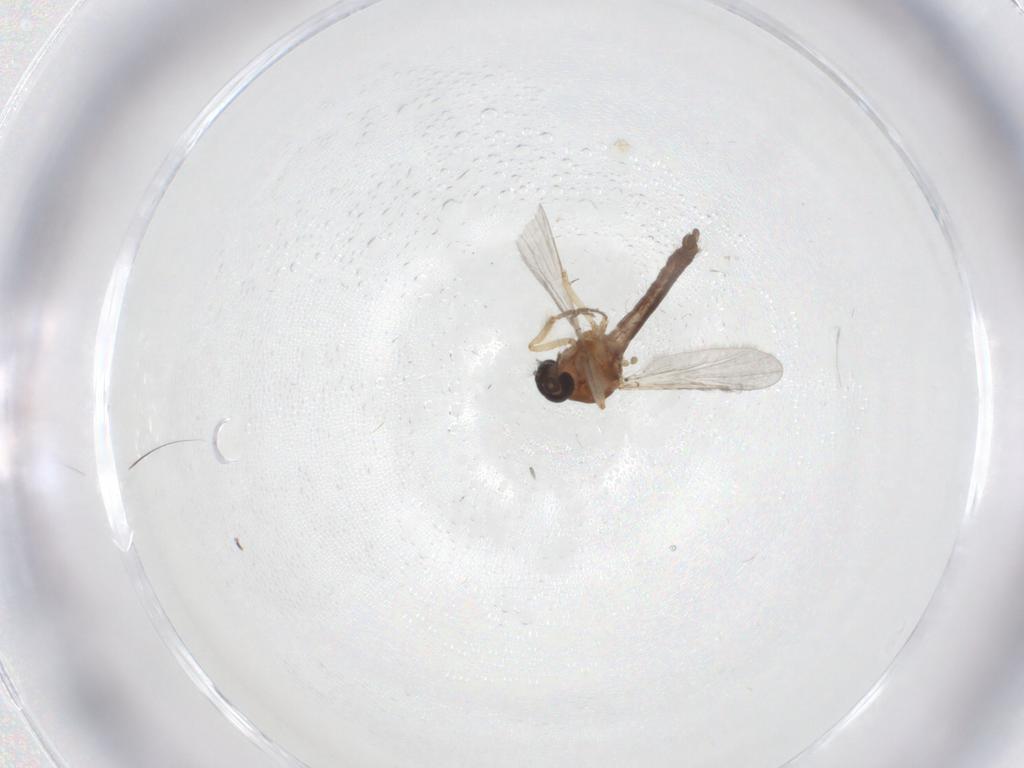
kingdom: Animalia
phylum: Arthropoda
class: Insecta
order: Diptera
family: Ceratopogonidae
